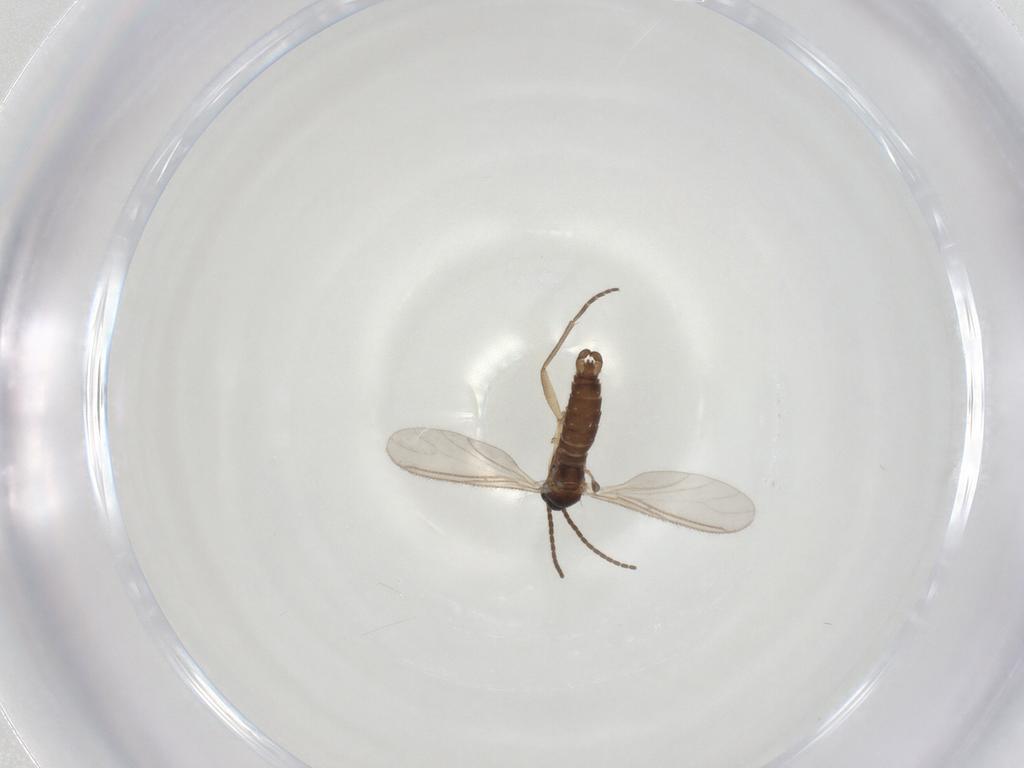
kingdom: Animalia
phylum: Arthropoda
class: Insecta
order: Diptera
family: Sciaridae
